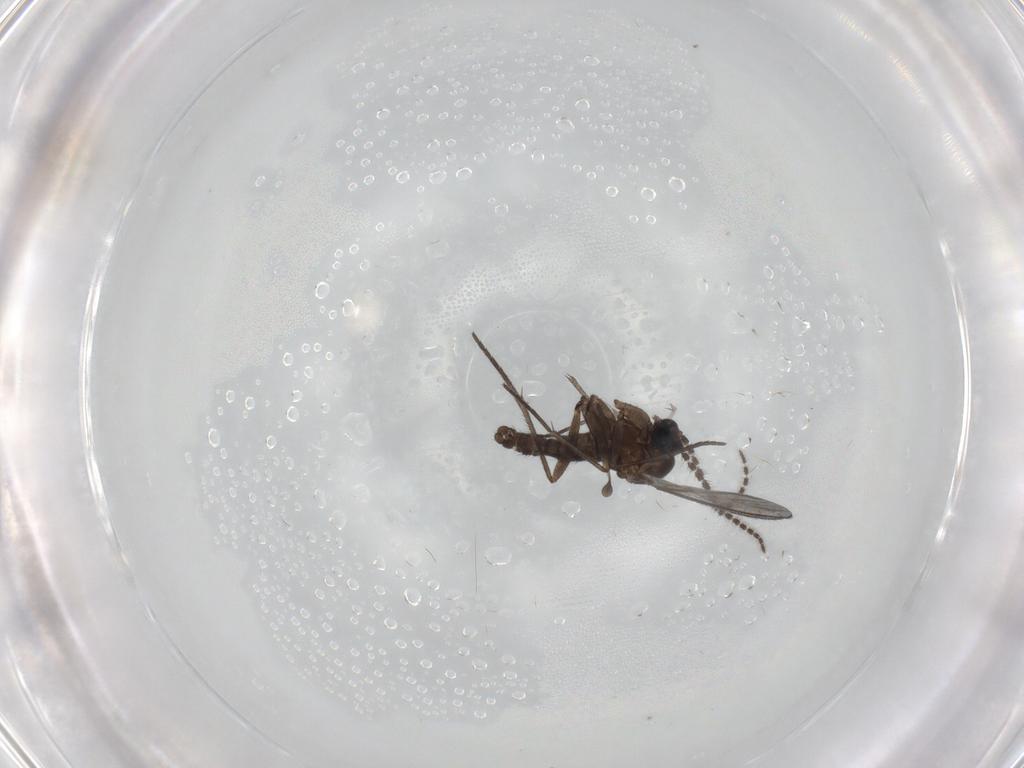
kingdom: Animalia
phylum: Arthropoda
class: Insecta
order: Diptera
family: Sciaridae
